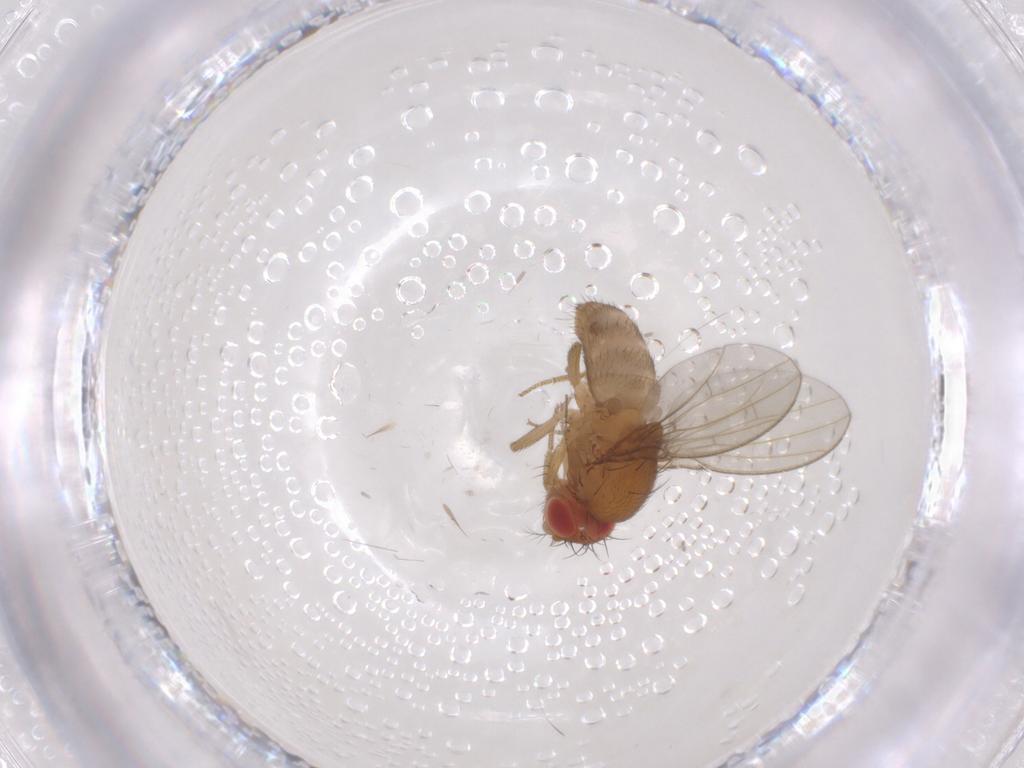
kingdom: Animalia
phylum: Arthropoda
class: Insecta
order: Diptera
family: Drosophilidae
